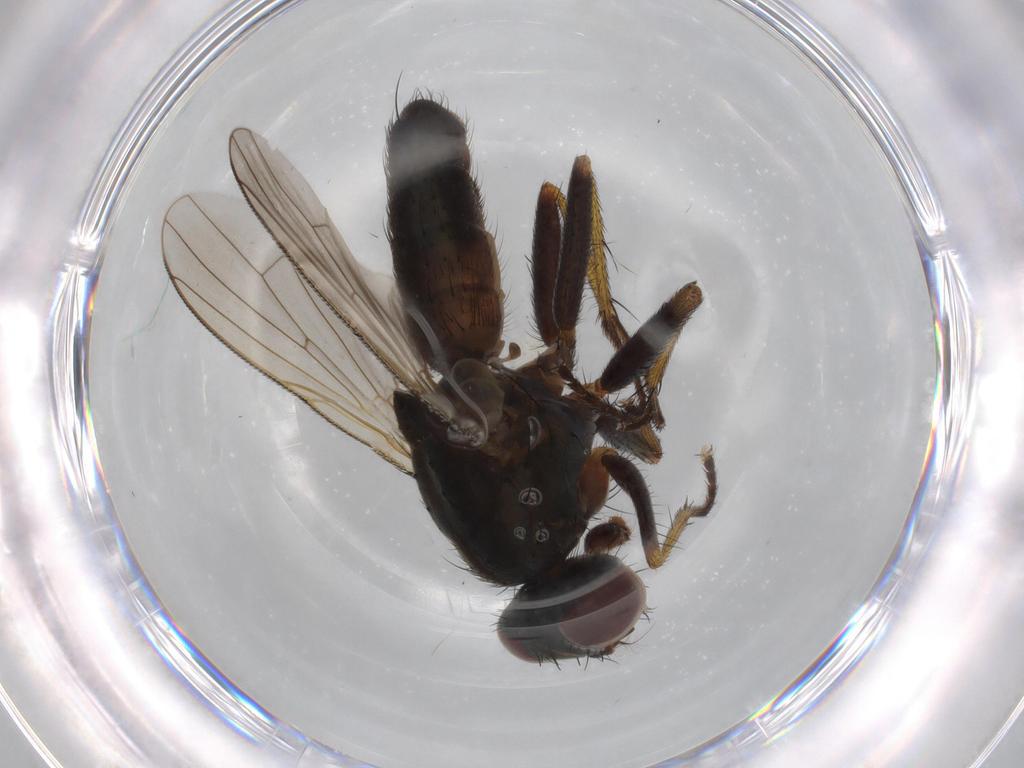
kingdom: Animalia
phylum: Arthropoda
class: Insecta
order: Diptera
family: Muscidae
